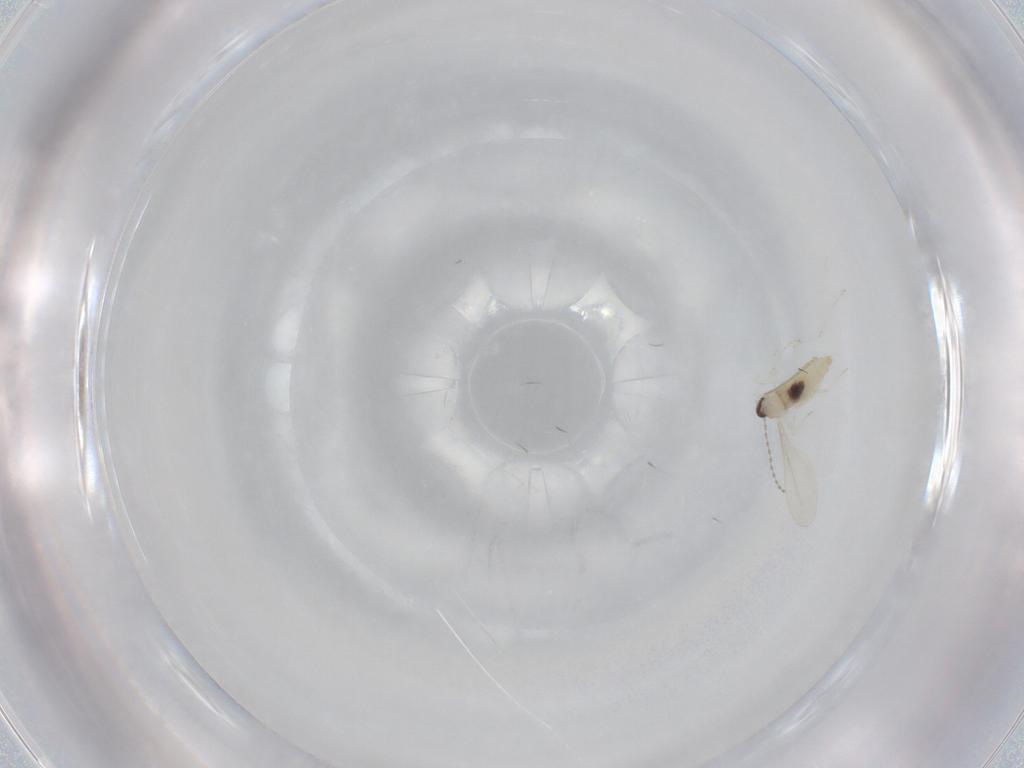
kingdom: Animalia
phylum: Arthropoda
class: Insecta
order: Diptera
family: Cecidomyiidae
